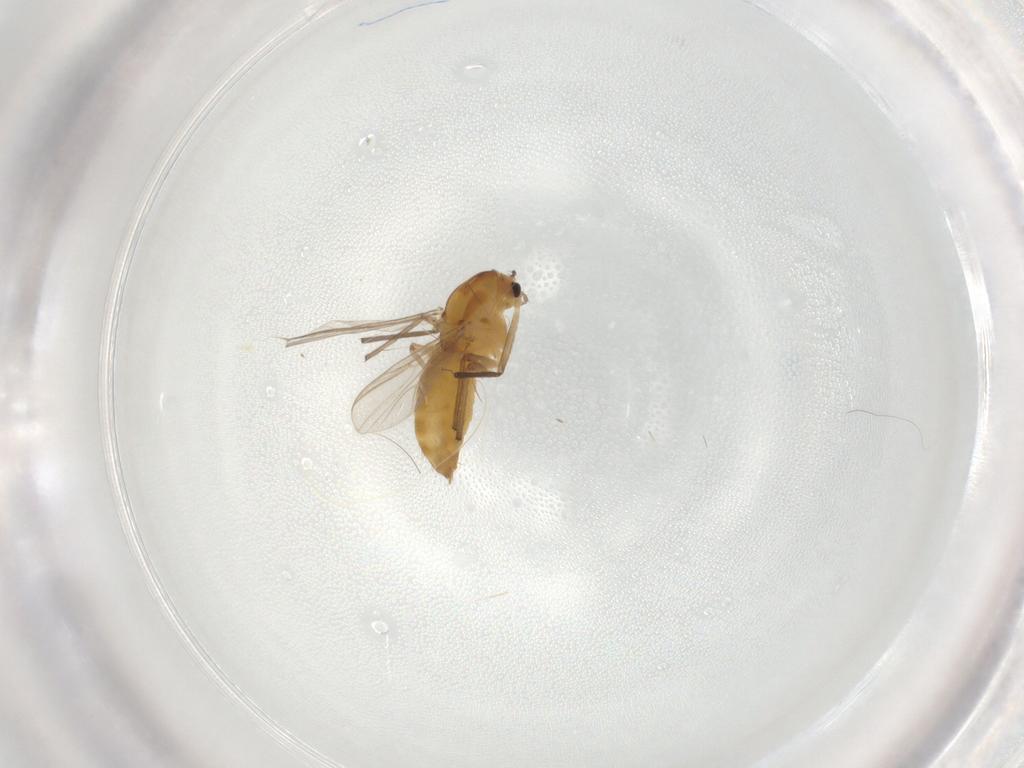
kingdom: Animalia
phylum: Arthropoda
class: Insecta
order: Diptera
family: Chironomidae
